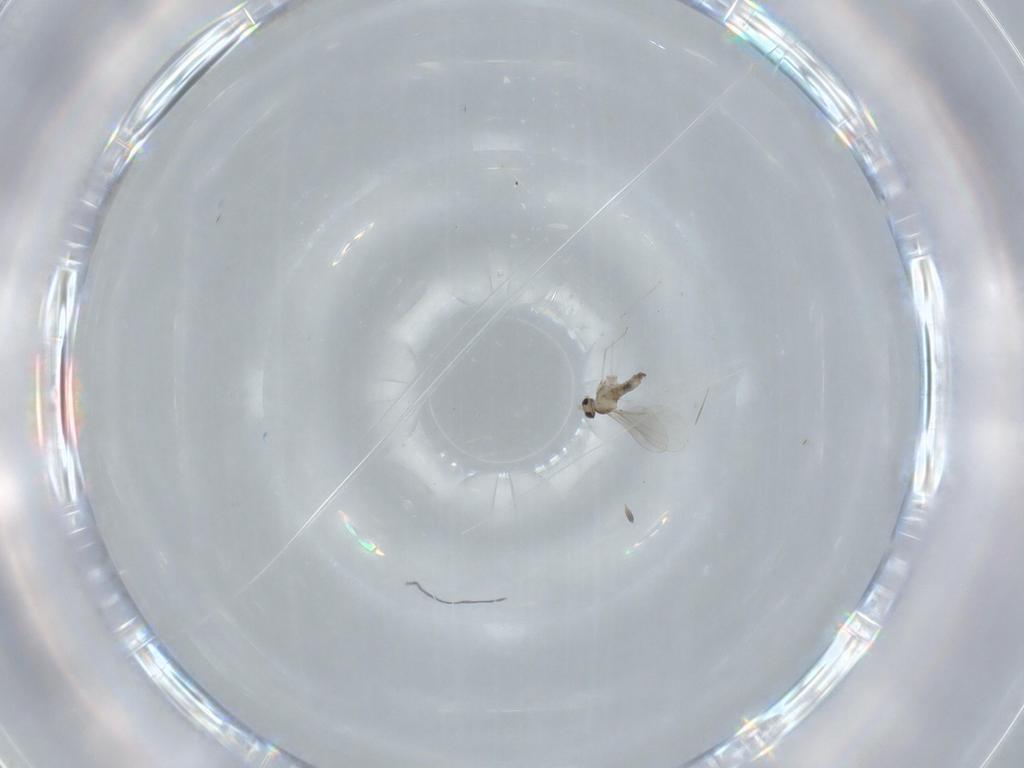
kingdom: Animalia
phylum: Arthropoda
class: Insecta
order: Diptera
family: Cecidomyiidae
